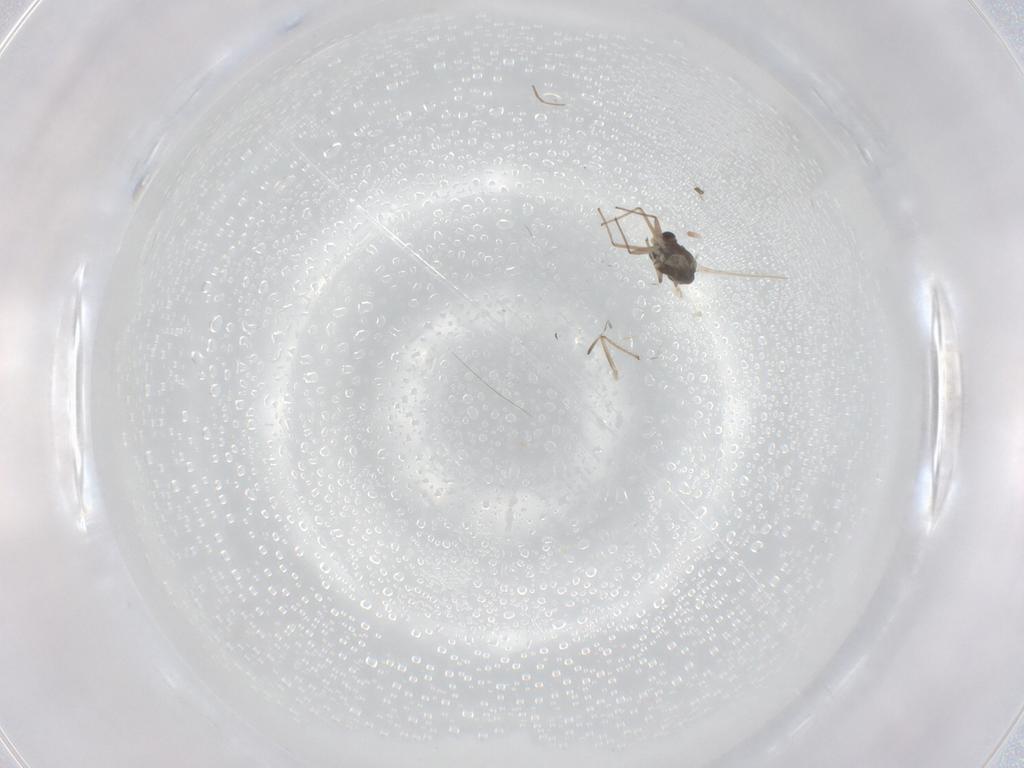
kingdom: Animalia
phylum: Arthropoda
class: Insecta
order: Diptera
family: Chironomidae
